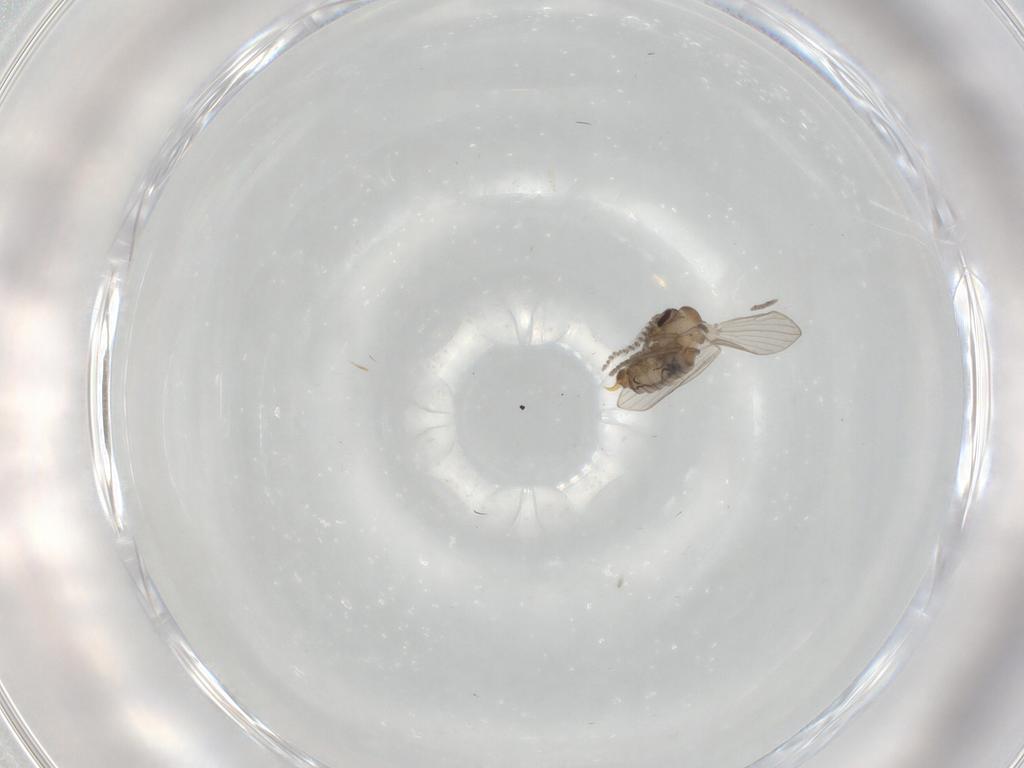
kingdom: Animalia
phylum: Arthropoda
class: Insecta
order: Diptera
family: Psychodidae
